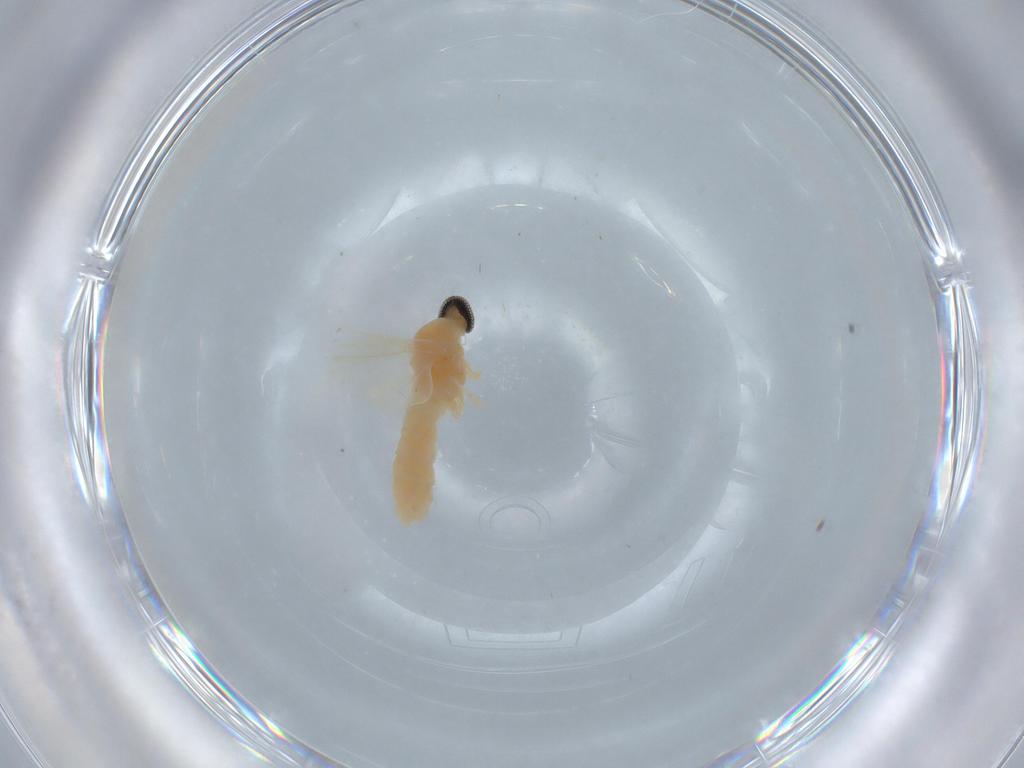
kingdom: Animalia
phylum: Arthropoda
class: Insecta
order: Diptera
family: Cecidomyiidae
